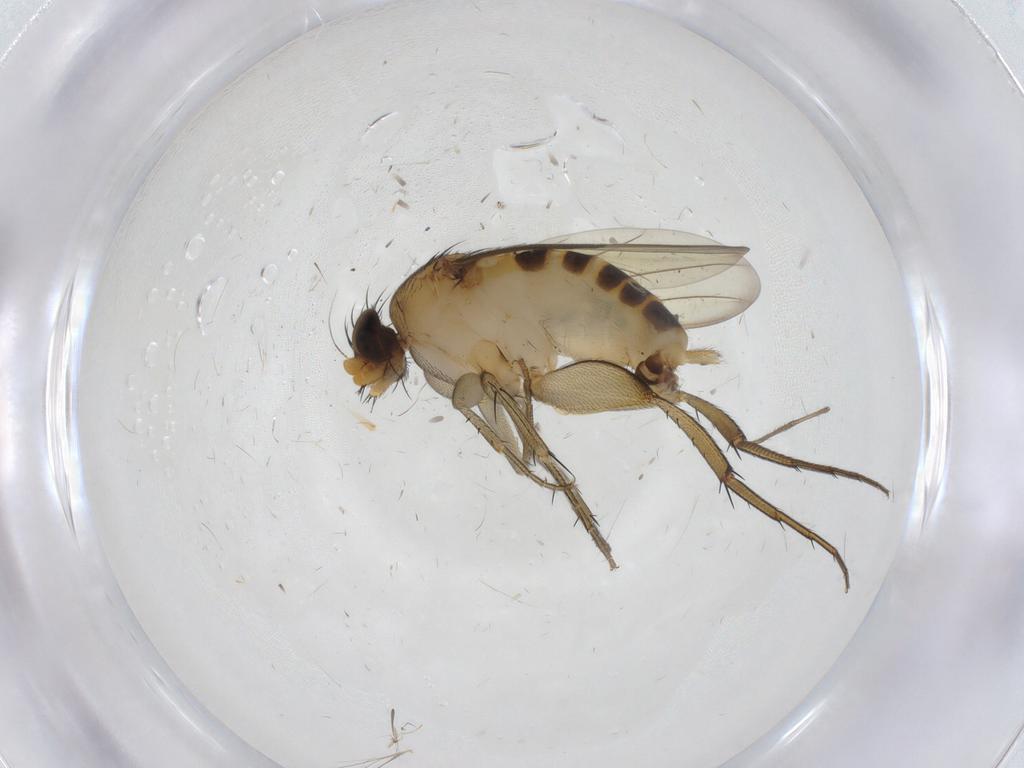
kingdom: Animalia
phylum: Arthropoda
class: Insecta
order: Diptera
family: Phoridae
